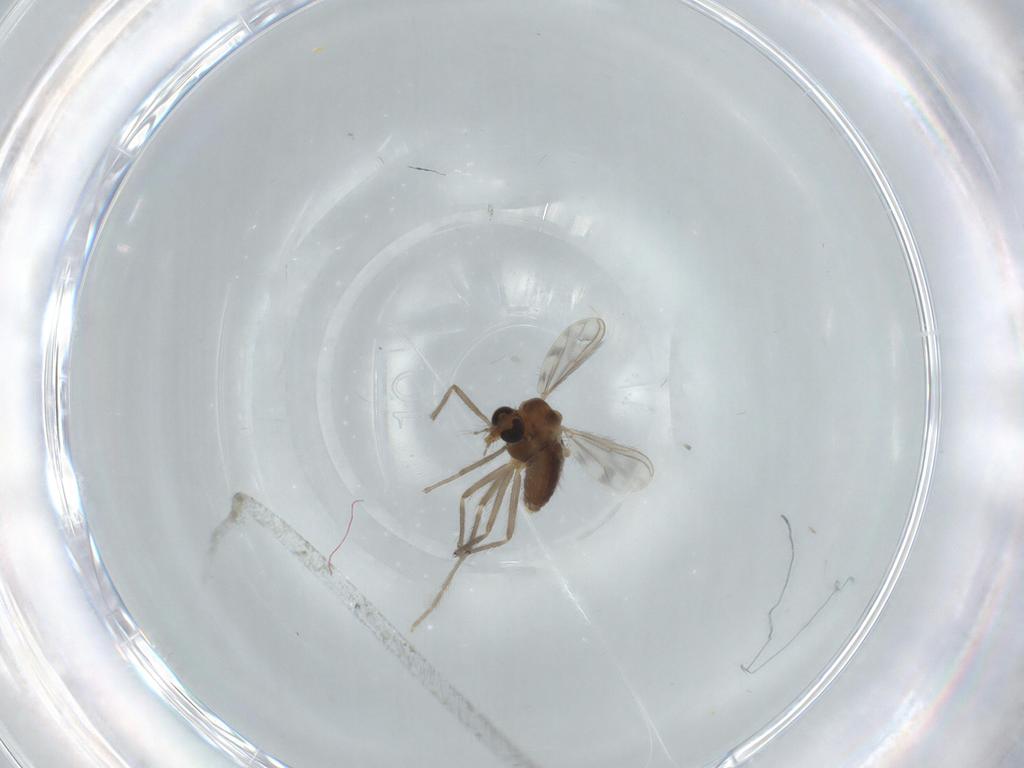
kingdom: Animalia
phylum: Arthropoda
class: Insecta
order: Diptera
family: Chironomidae
